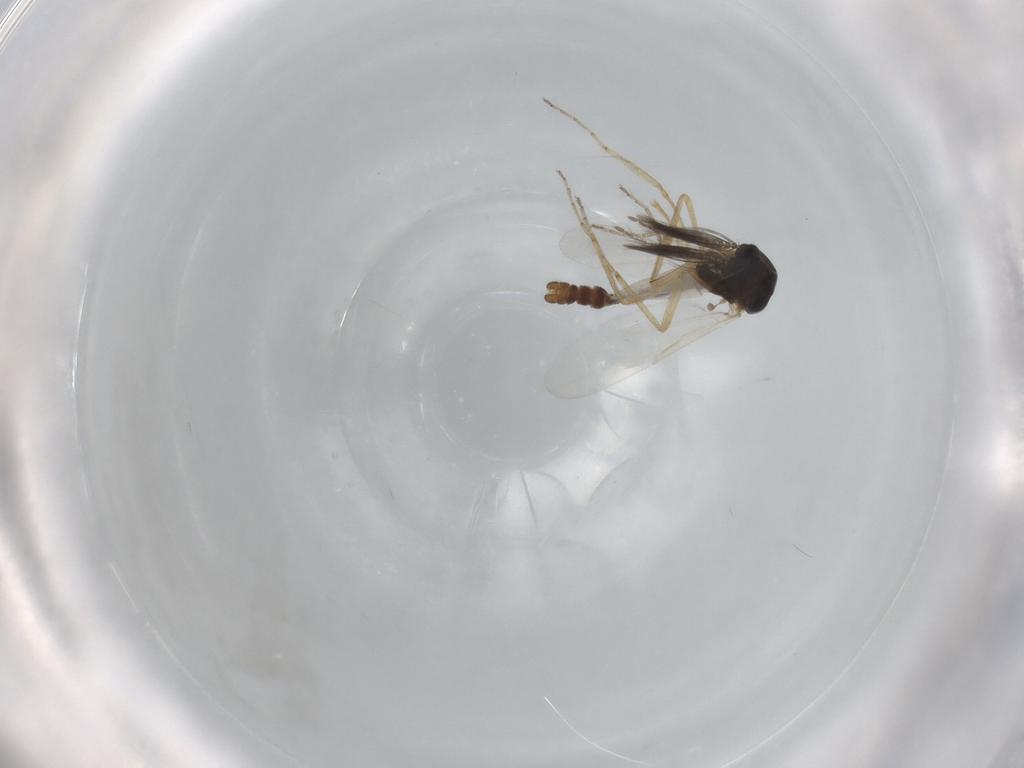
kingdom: Animalia
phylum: Arthropoda
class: Insecta
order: Diptera
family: Ceratopogonidae
